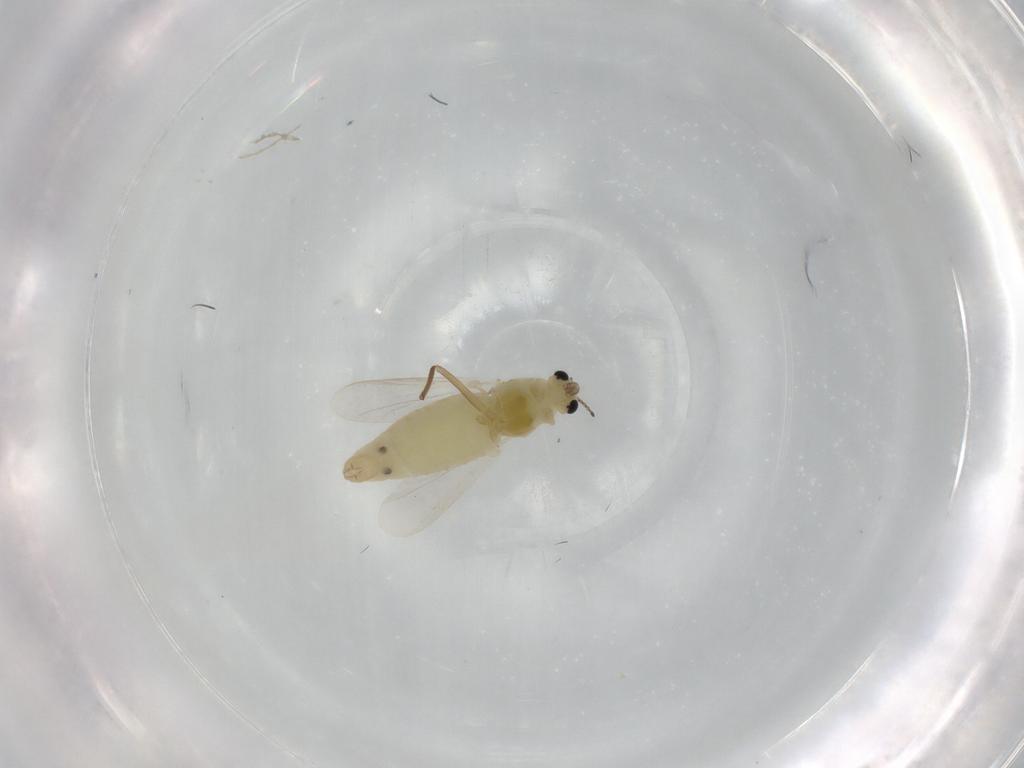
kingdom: Animalia
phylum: Arthropoda
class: Insecta
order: Diptera
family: Chironomidae
